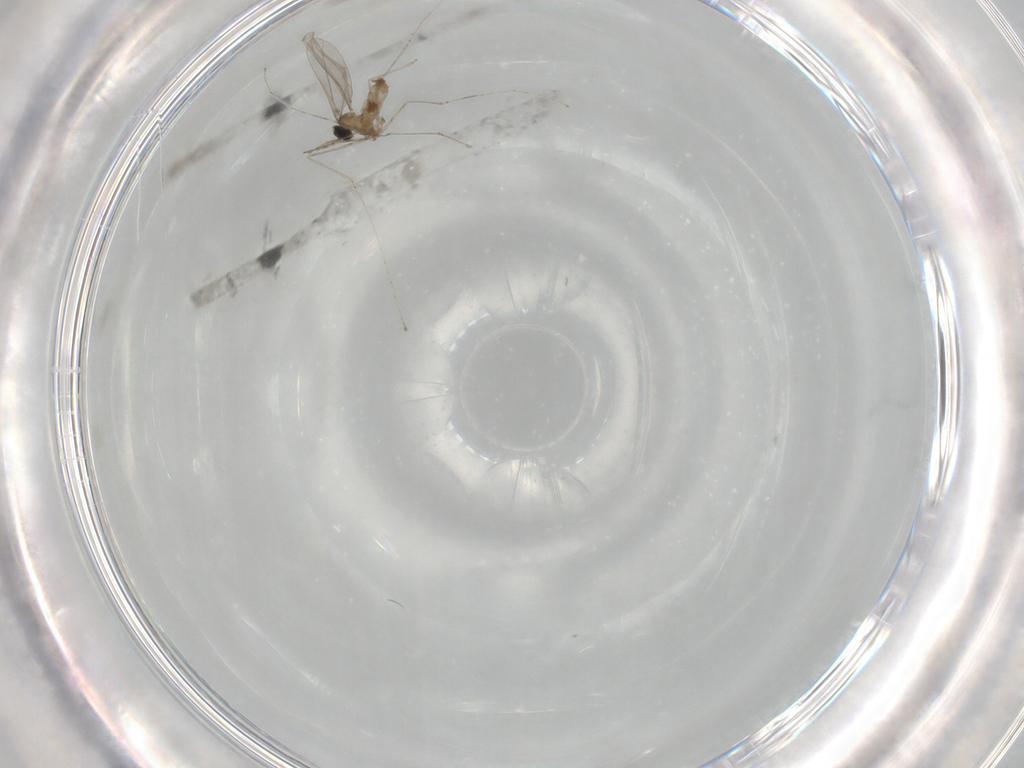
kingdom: Animalia
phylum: Arthropoda
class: Insecta
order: Diptera
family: Cecidomyiidae
